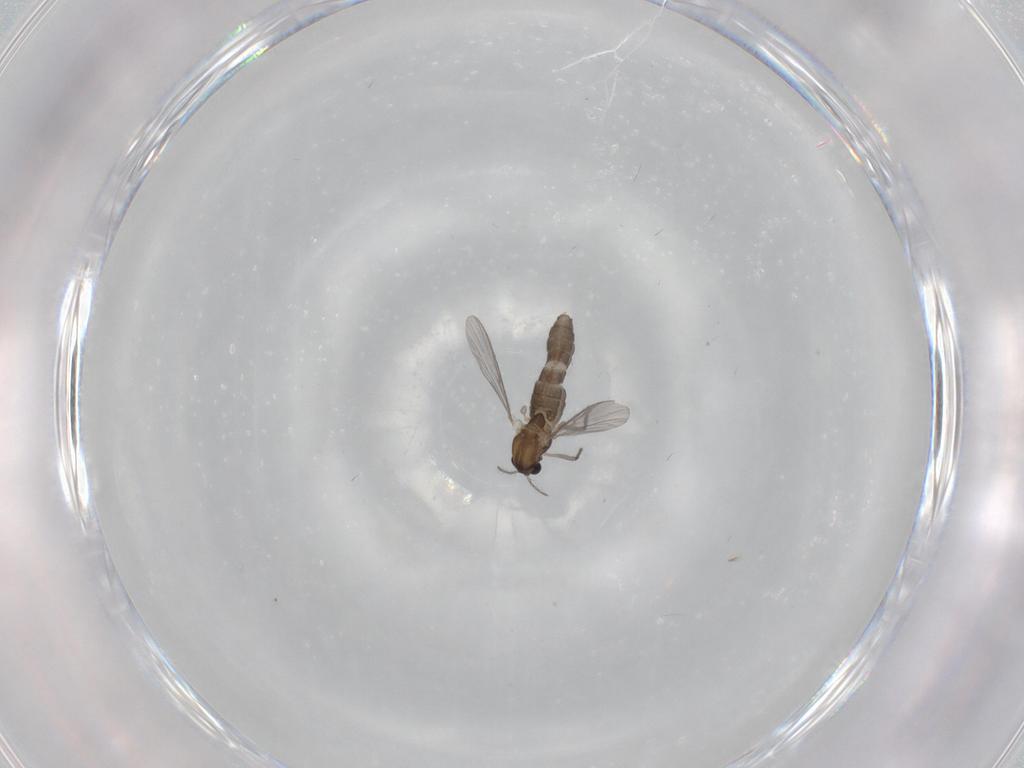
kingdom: Animalia
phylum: Arthropoda
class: Insecta
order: Diptera
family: Chironomidae
